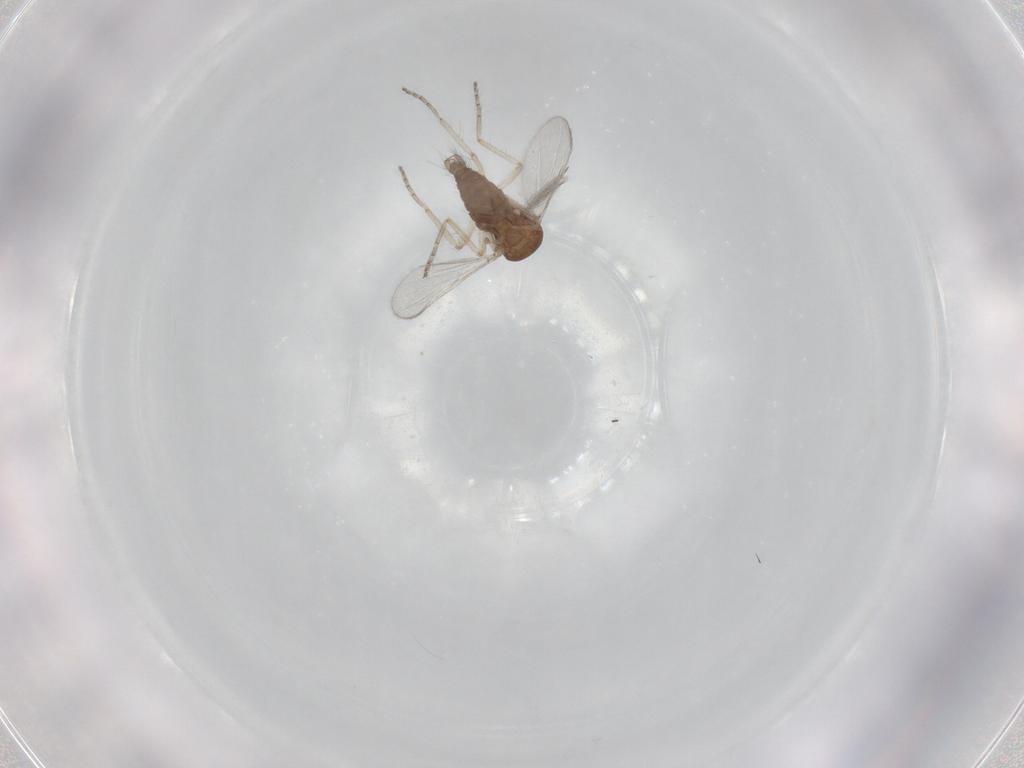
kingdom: Animalia
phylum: Arthropoda
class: Insecta
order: Diptera
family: Ceratopogonidae
